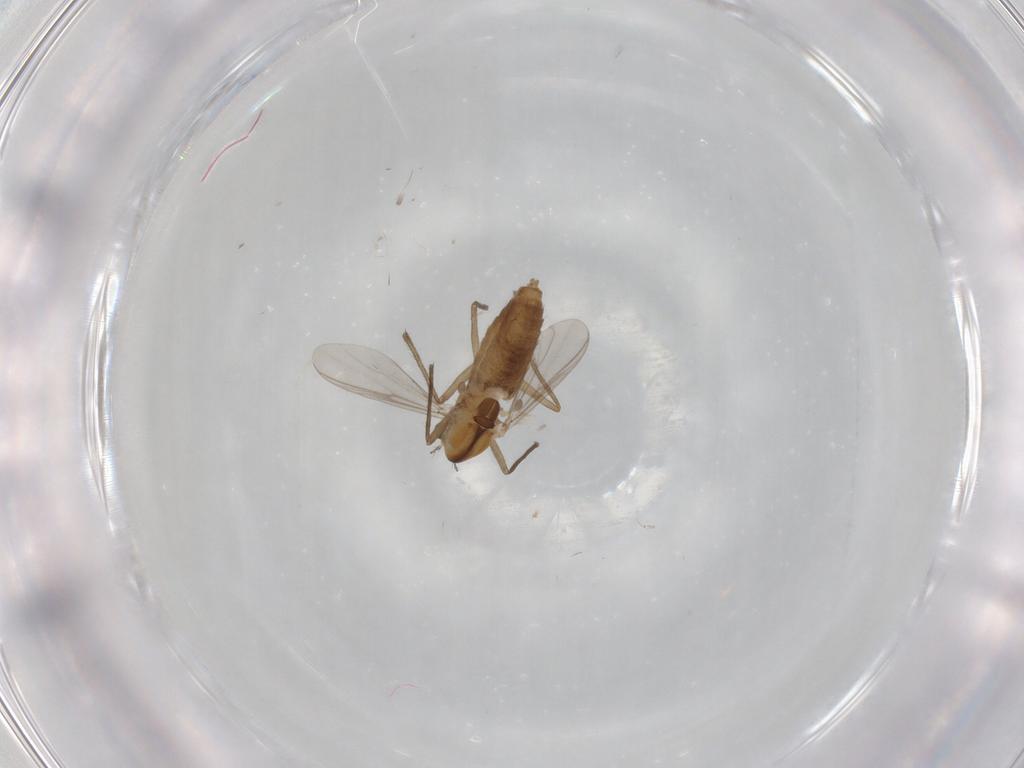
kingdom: Animalia
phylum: Arthropoda
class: Insecta
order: Diptera
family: Chironomidae
